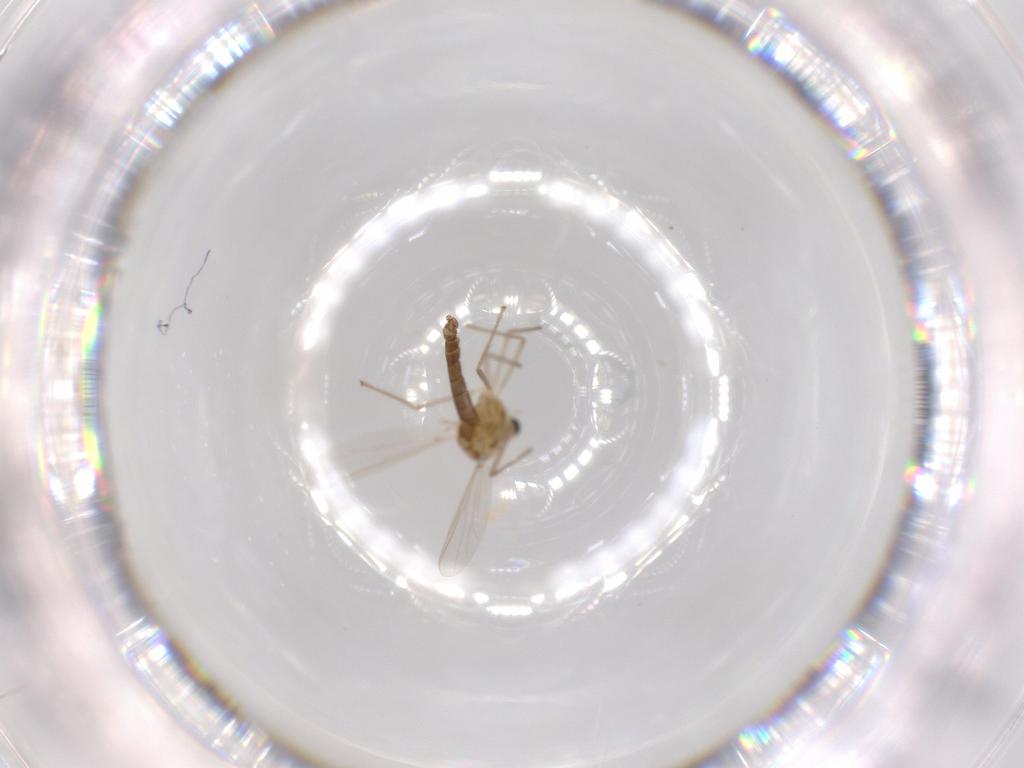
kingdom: Animalia
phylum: Arthropoda
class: Insecta
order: Diptera
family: Chironomidae
